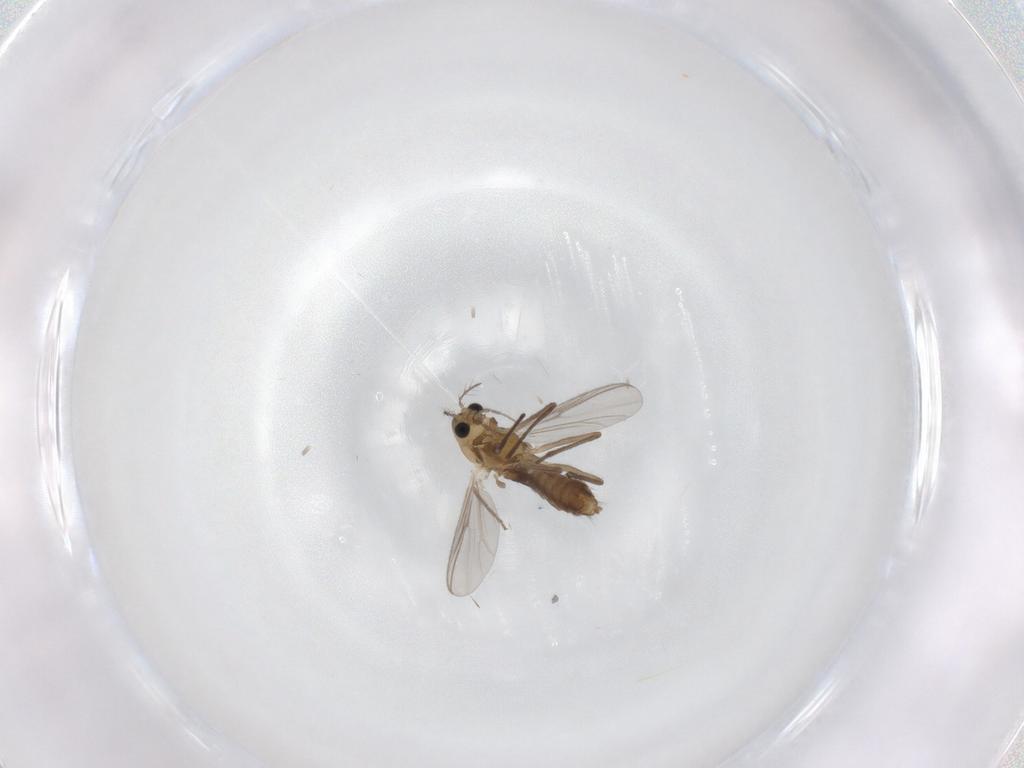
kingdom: Animalia
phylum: Arthropoda
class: Insecta
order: Diptera
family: Chironomidae
